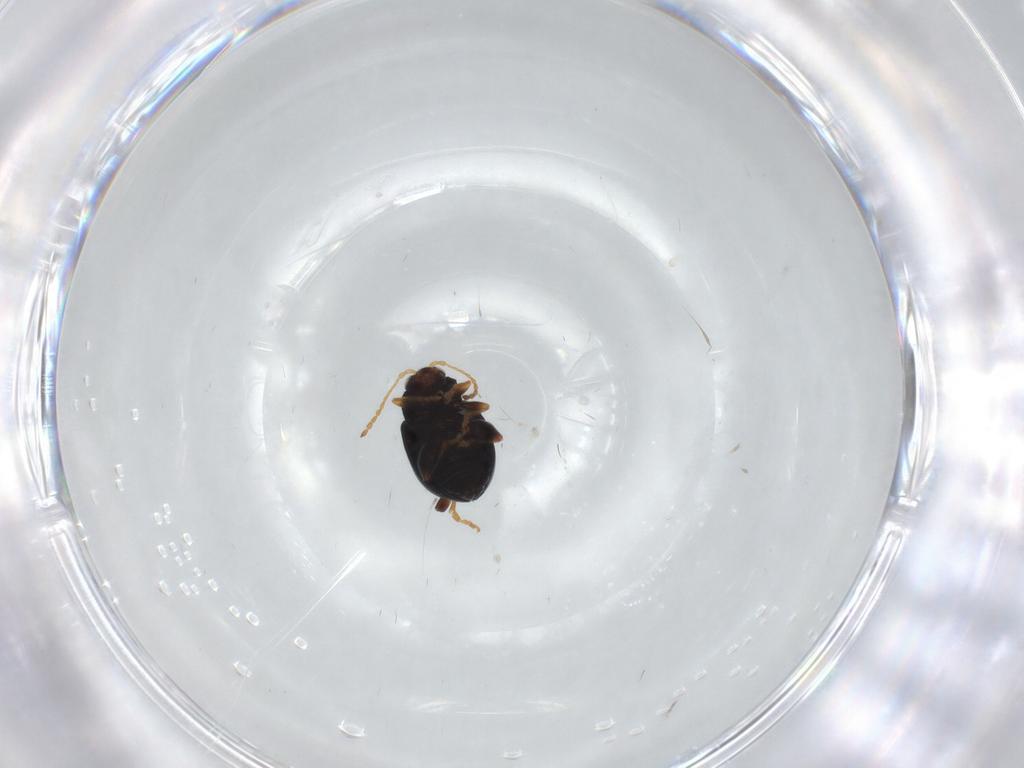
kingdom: Animalia
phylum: Arthropoda
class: Insecta
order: Coleoptera
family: Chrysomelidae
